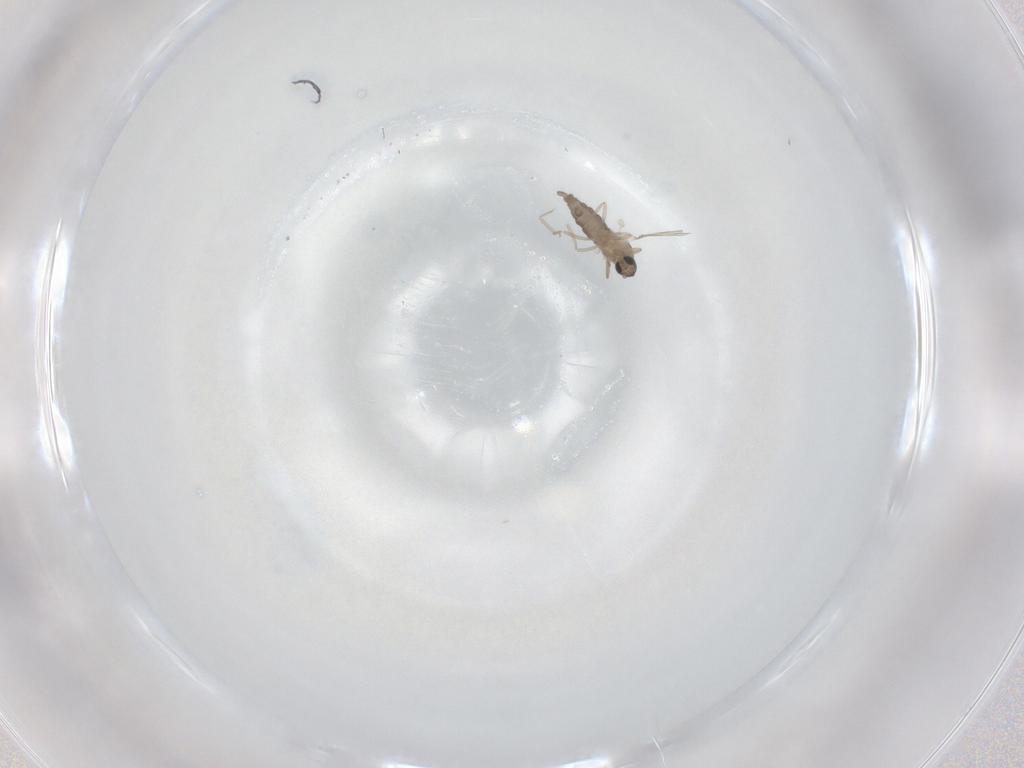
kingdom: Animalia
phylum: Arthropoda
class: Insecta
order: Diptera
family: Cecidomyiidae
